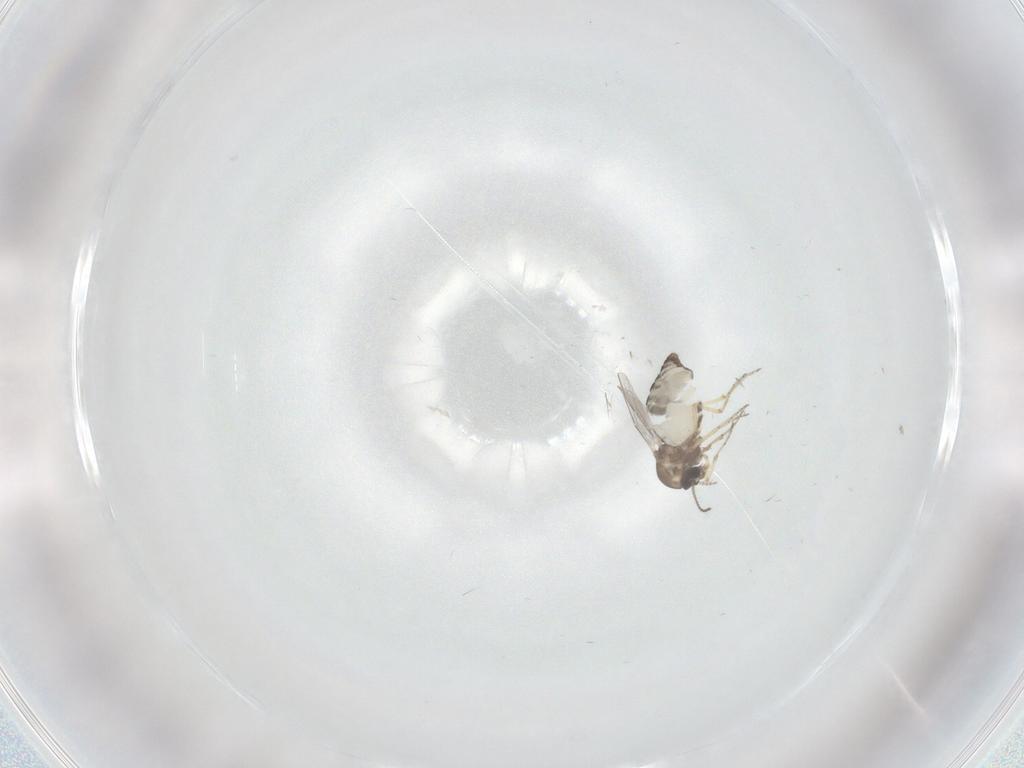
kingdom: Animalia
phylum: Arthropoda
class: Insecta
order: Diptera
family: Ceratopogonidae
